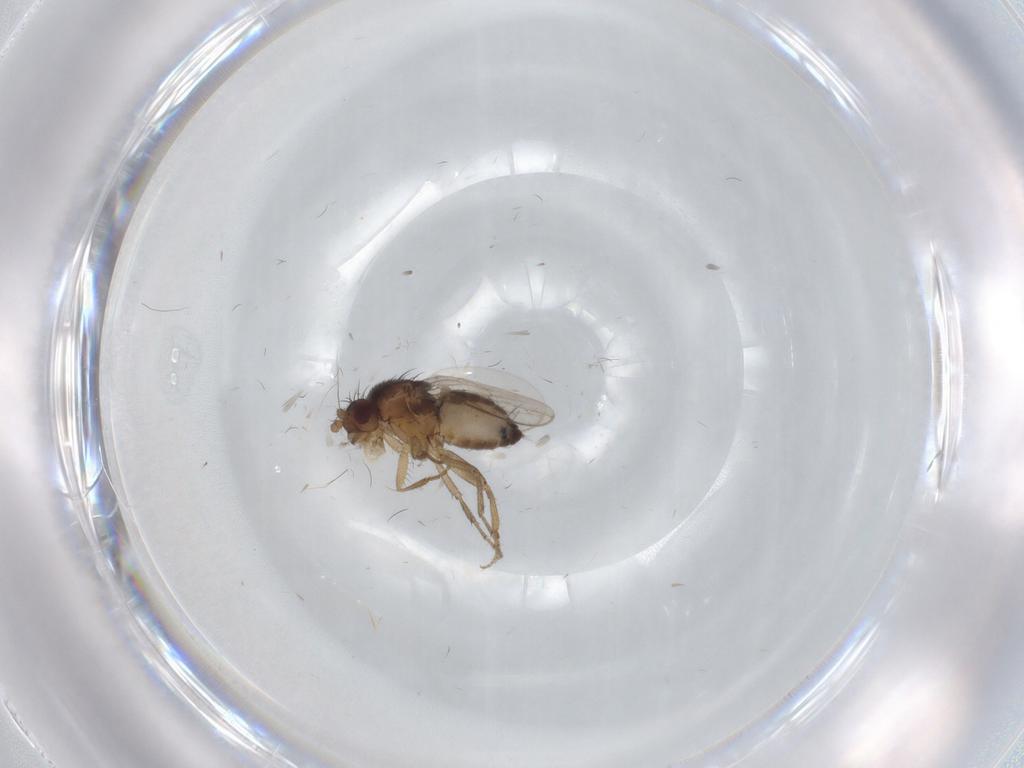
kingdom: Animalia
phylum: Arthropoda
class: Insecta
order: Diptera
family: Sphaeroceridae
